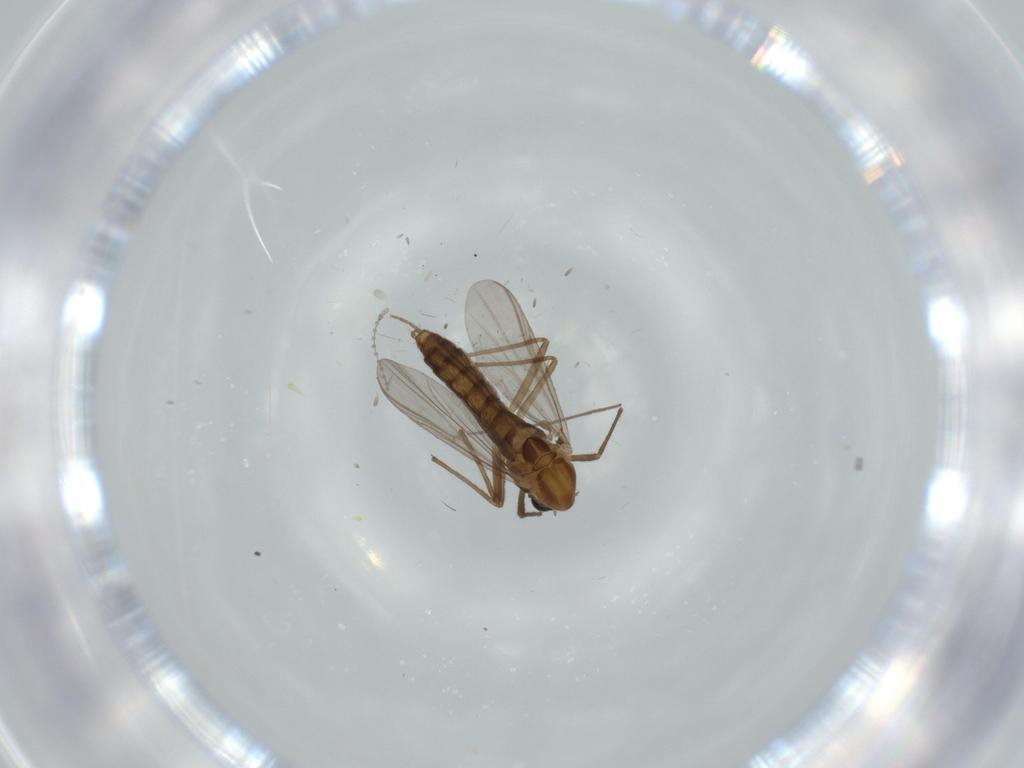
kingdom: Animalia
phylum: Arthropoda
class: Insecta
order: Diptera
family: Chironomidae
